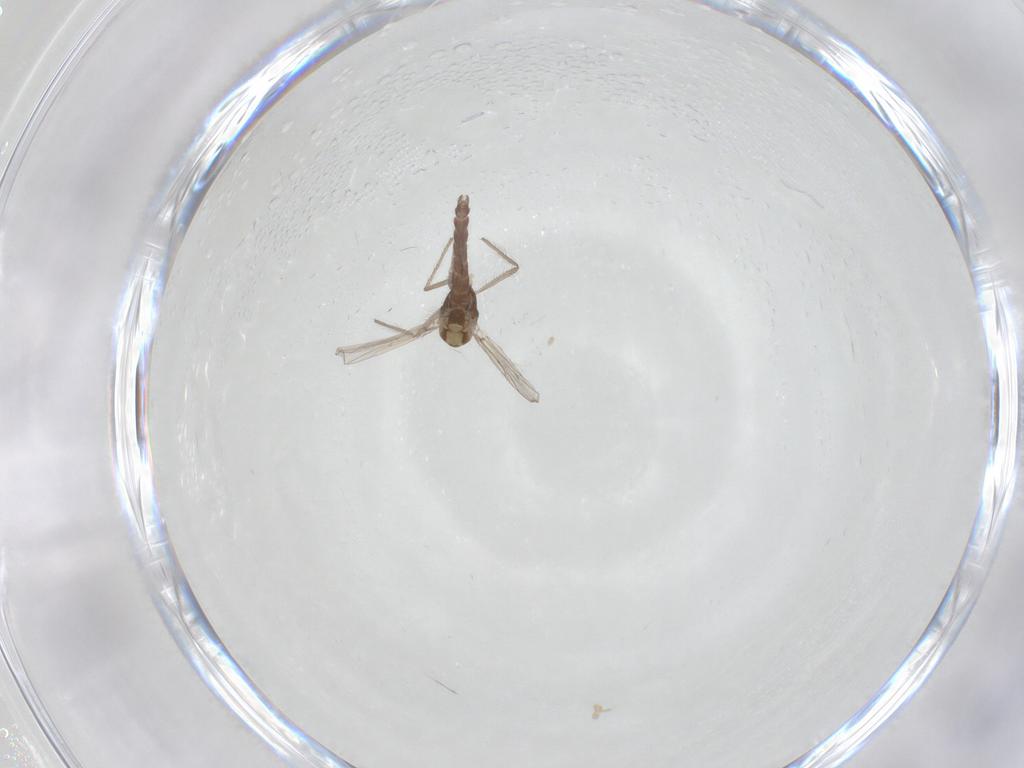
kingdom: Animalia
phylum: Arthropoda
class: Insecta
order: Diptera
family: Chironomidae
